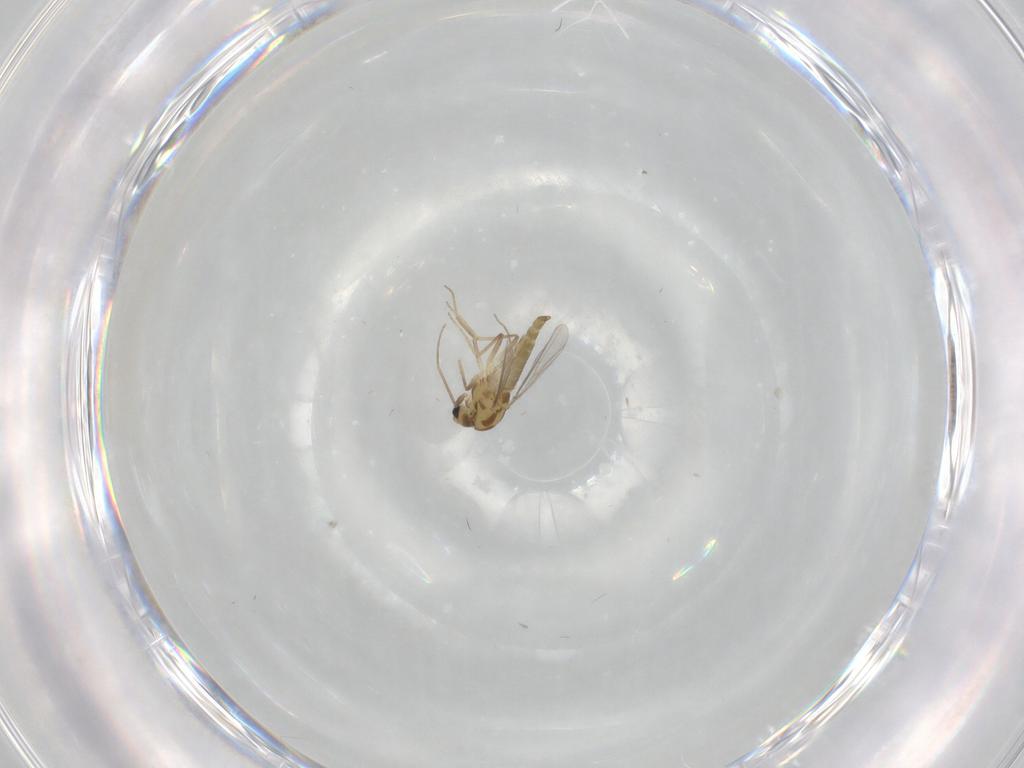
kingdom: Animalia
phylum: Arthropoda
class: Insecta
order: Diptera
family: Chironomidae
